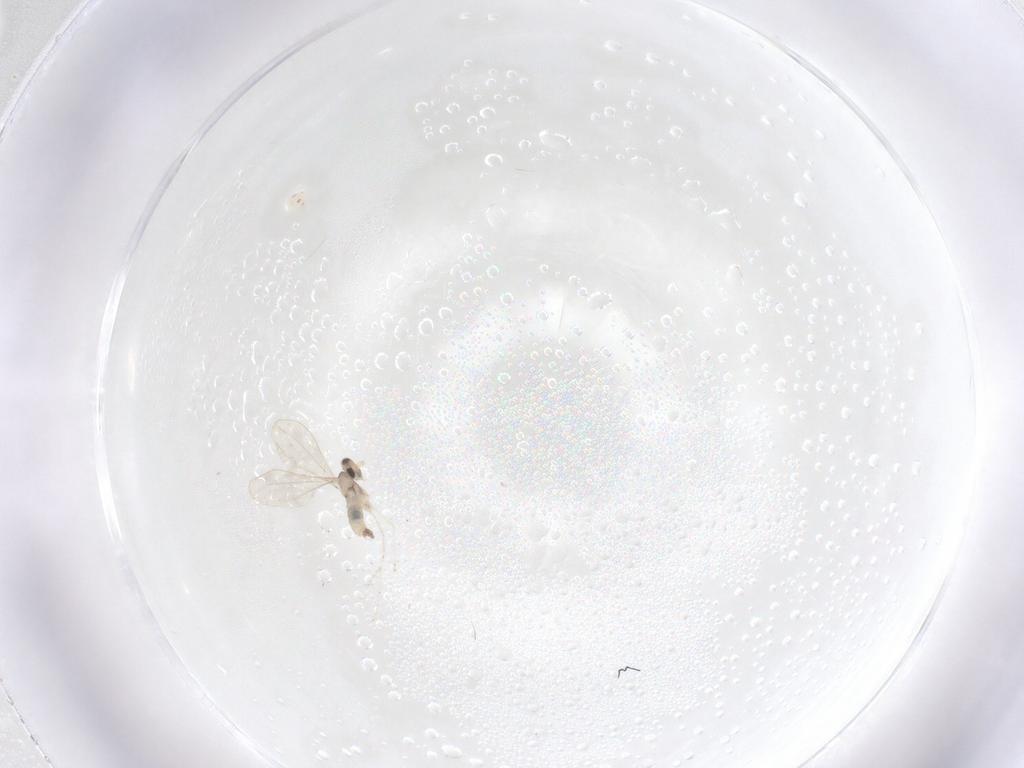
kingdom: Animalia
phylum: Arthropoda
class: Insecta
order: Diptera
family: Cecidomyiidae
